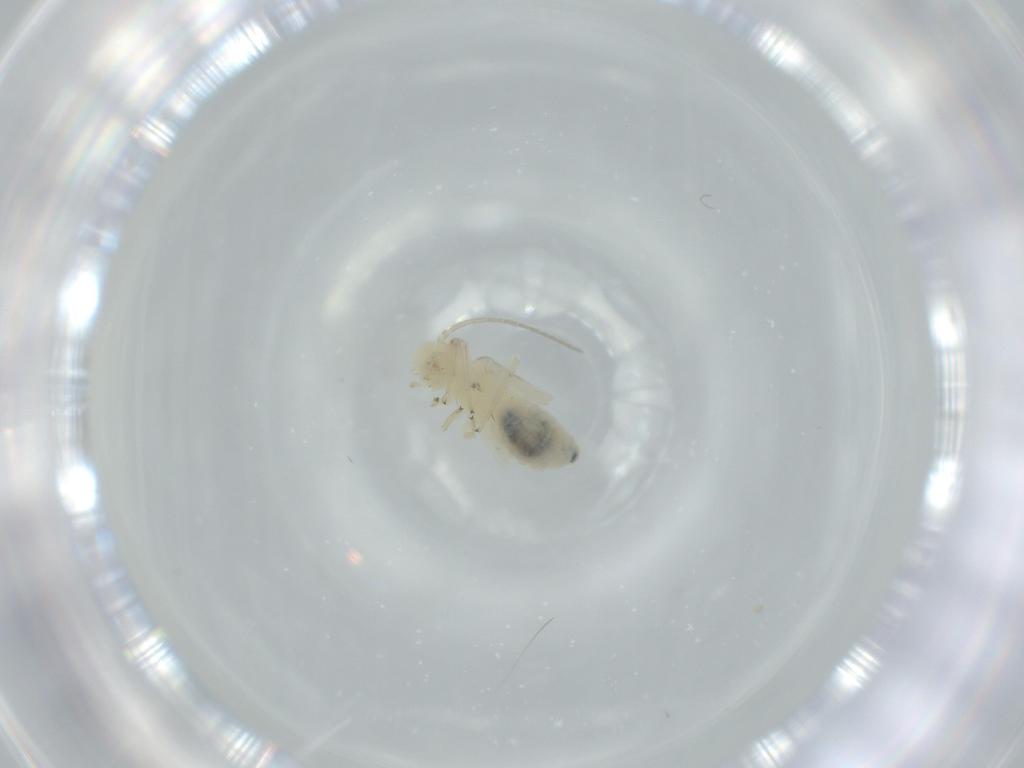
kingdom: Animalia
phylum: Arthropoda
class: Insecta
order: Psocodea
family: Caeciliusidae
